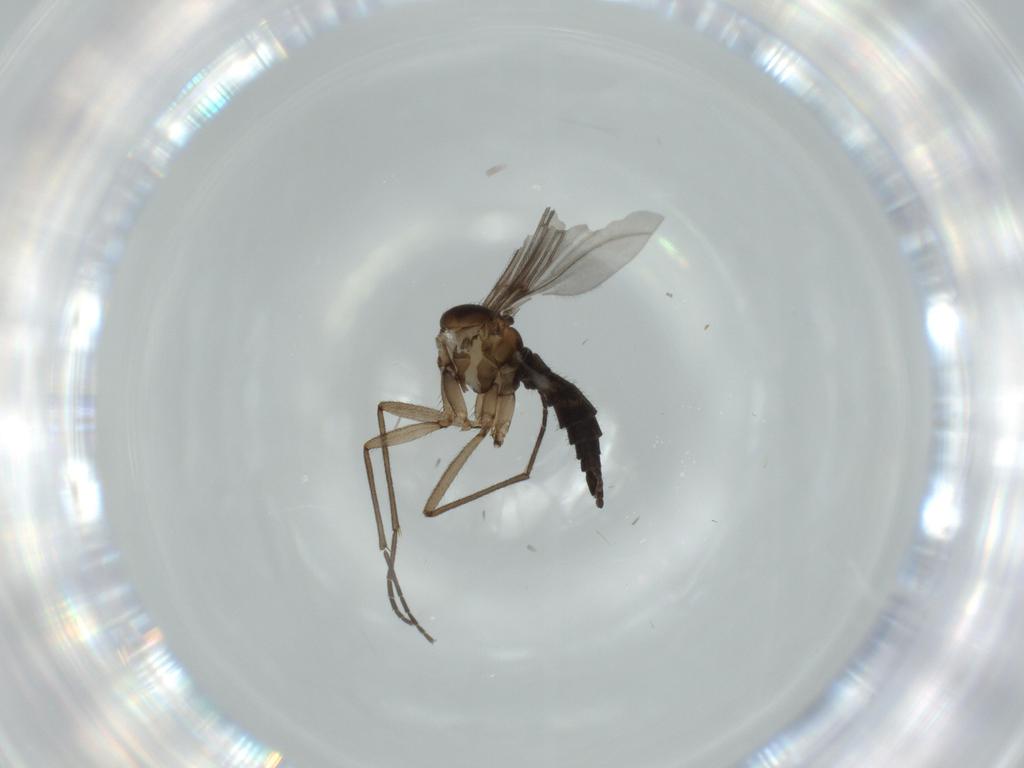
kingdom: Animalia
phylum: Arthropoda
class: Insecta
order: Diptera
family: Sciaridae
